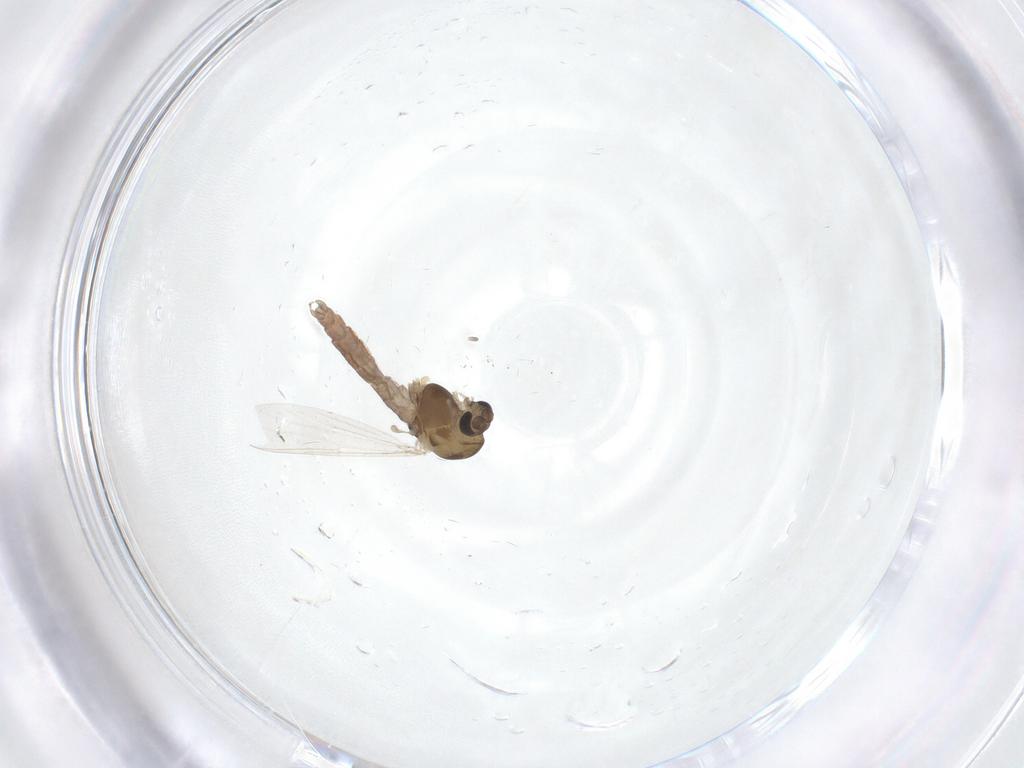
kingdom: Animalia
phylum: Arthropoda
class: Insecta
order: Diptera
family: Chironomidae
